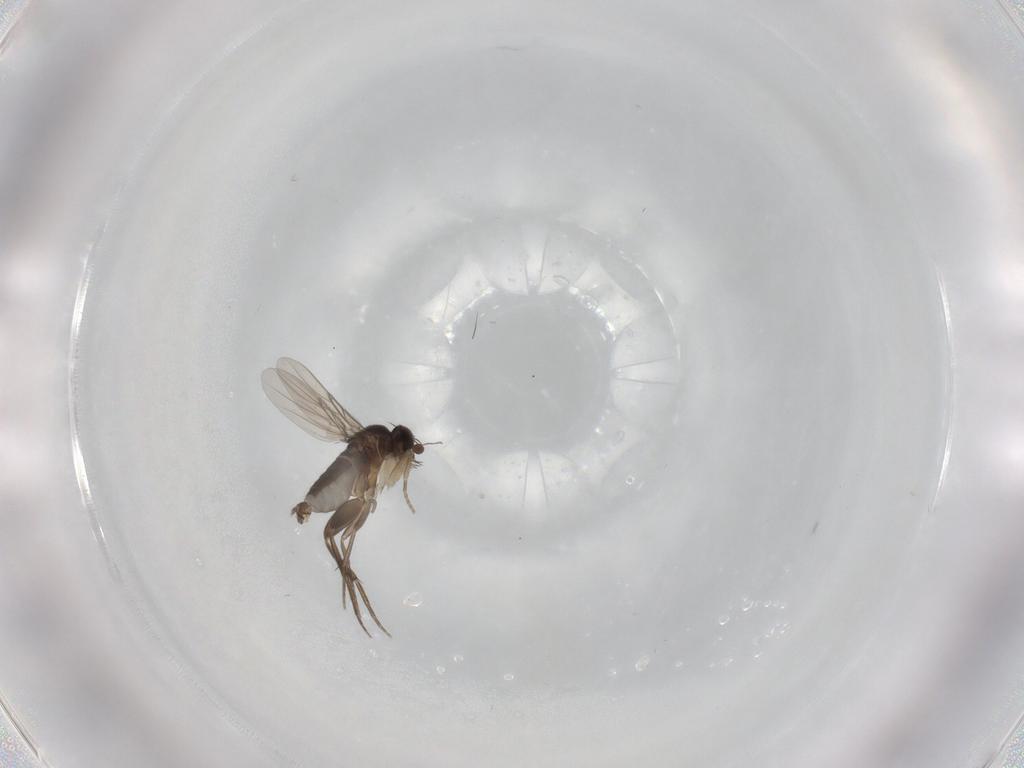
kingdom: Animalia
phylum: Arthropoda
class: Insecta
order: Diptera
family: Phoridae
